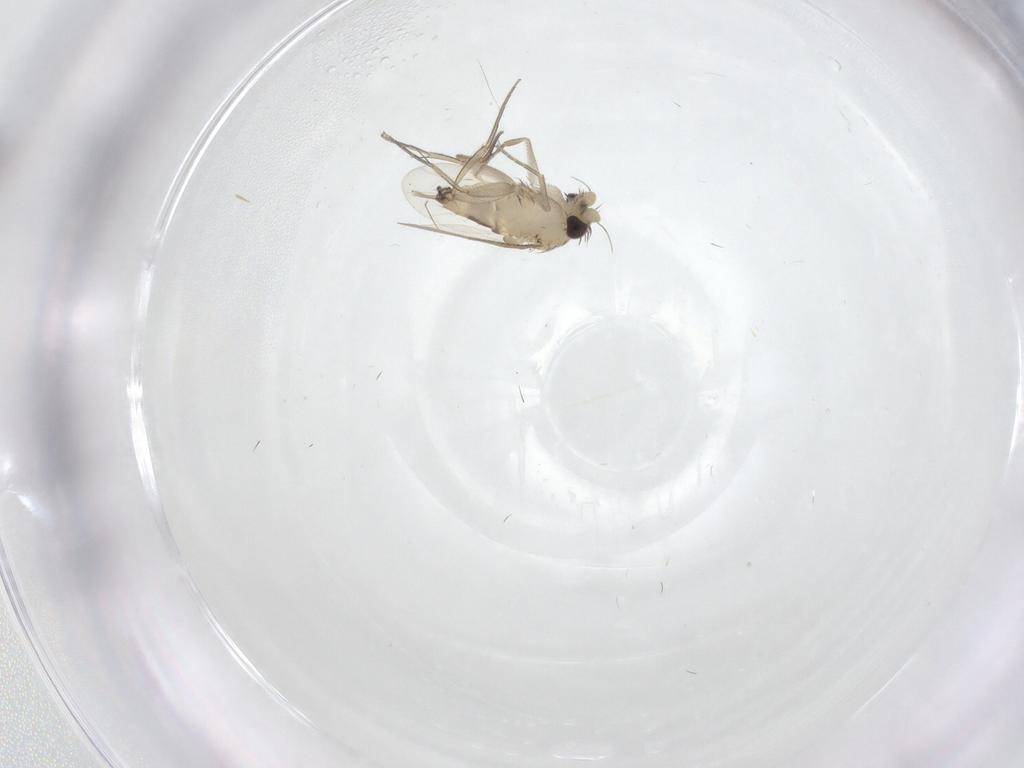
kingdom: Animalia
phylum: Arthropoda
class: Insecta
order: Diptera
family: Phoridae
